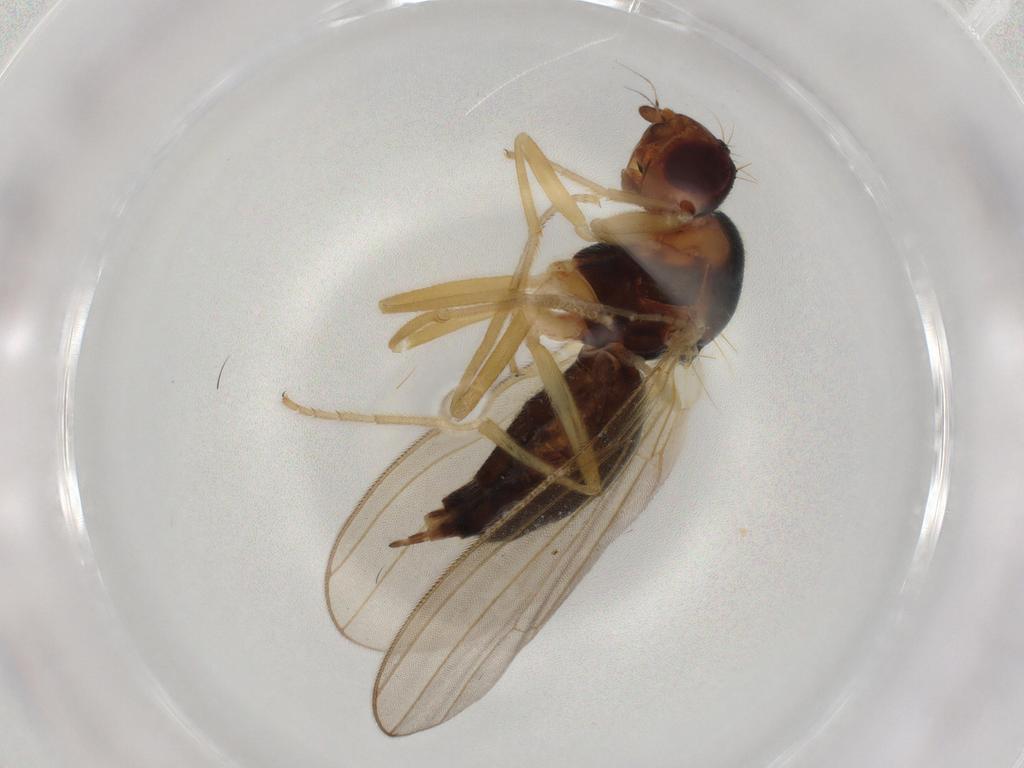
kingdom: Animalia
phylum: Arthropoda
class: Insecta
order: Diptera
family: Psilidae
